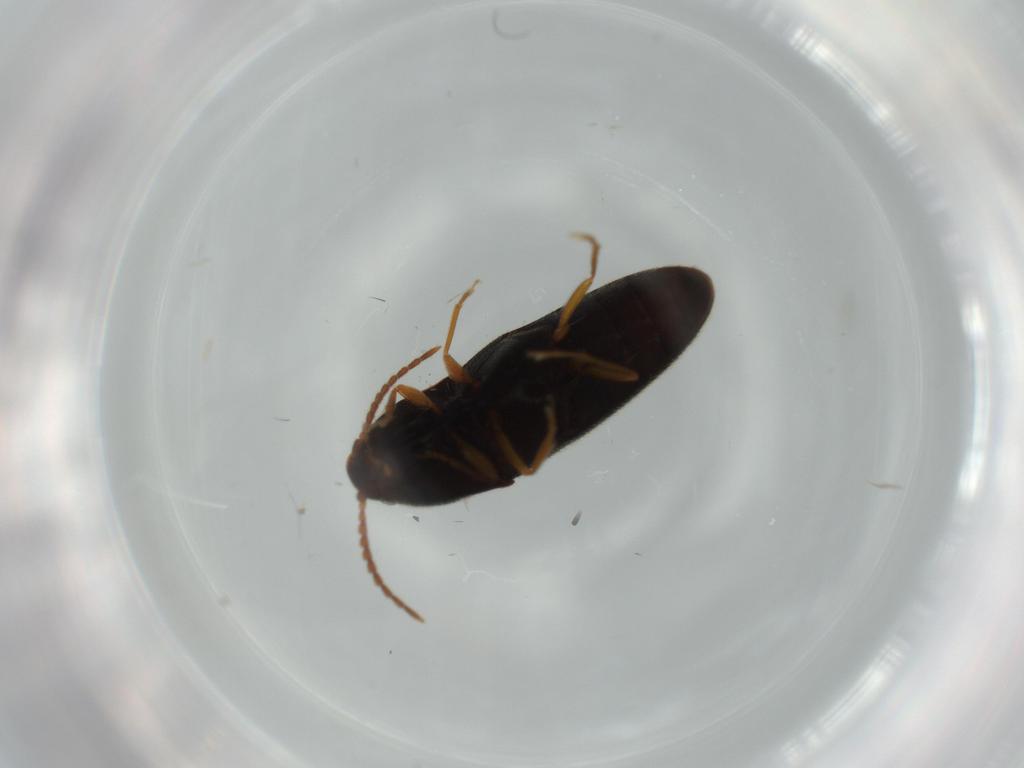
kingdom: Animalia
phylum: Arthropoda
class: Insecta
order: Coleoptera
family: Elateridae
